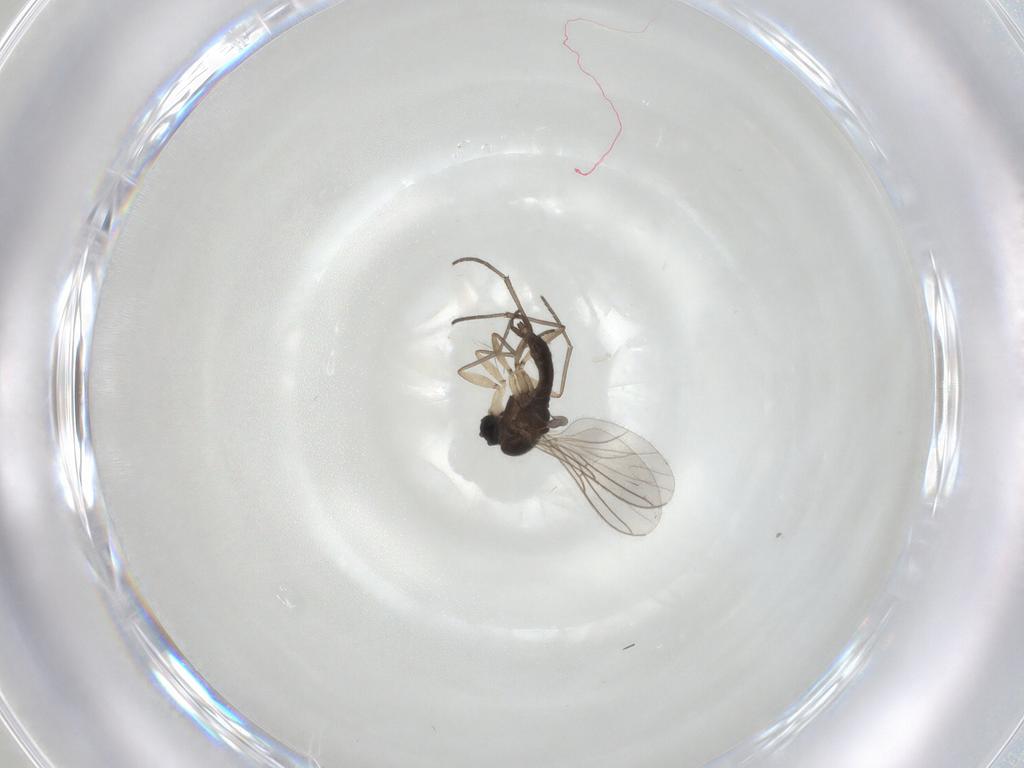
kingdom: Animalia
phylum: Arthropoda
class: Insecta
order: Diptera
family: Sciaridae
